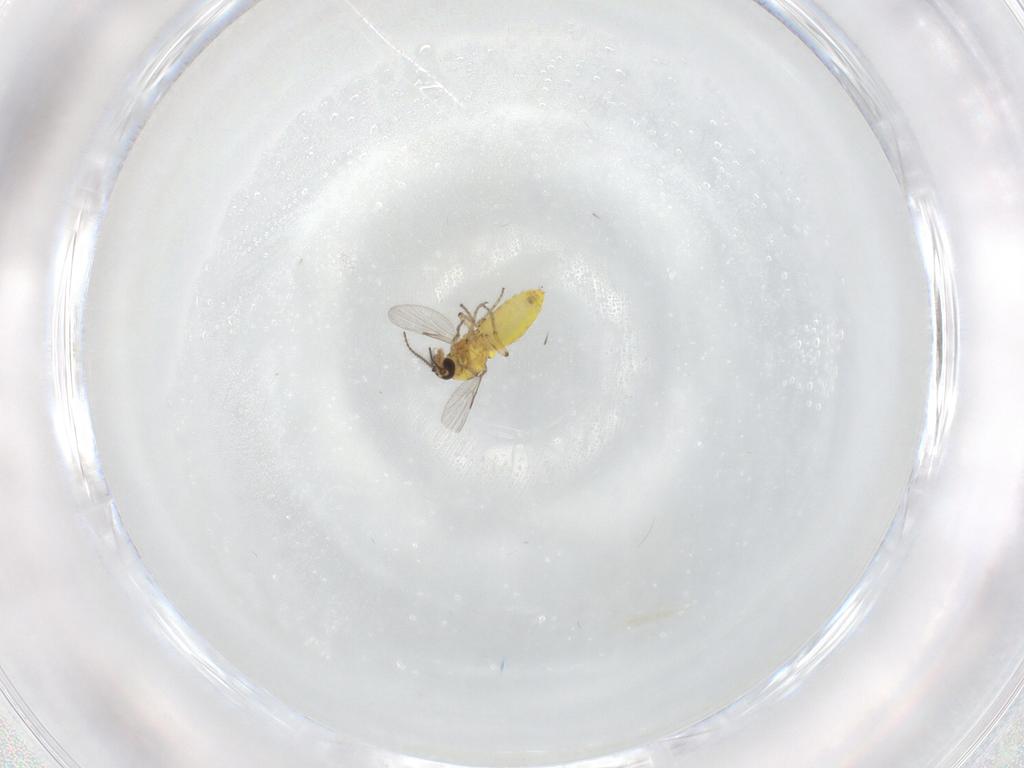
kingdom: Animalia
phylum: Arthropoda
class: Insecta
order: Diptera
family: Ceratopogonidae
